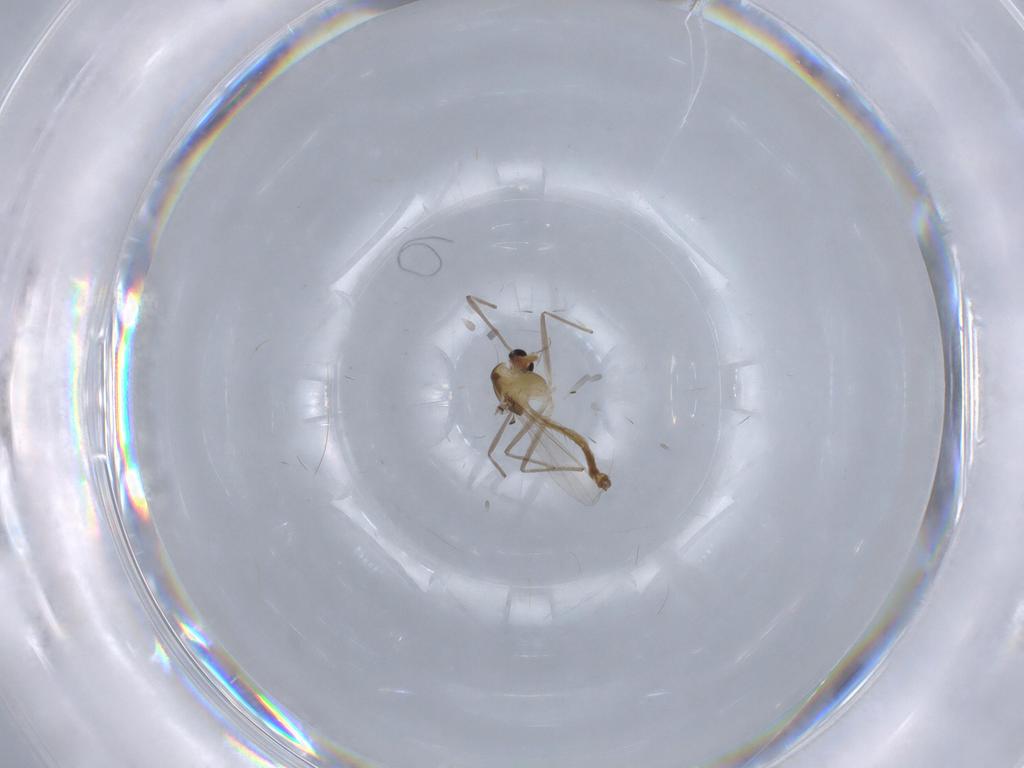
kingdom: Animalia
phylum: Arthropoda
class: Insecta
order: Diptera
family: Chironomidae
